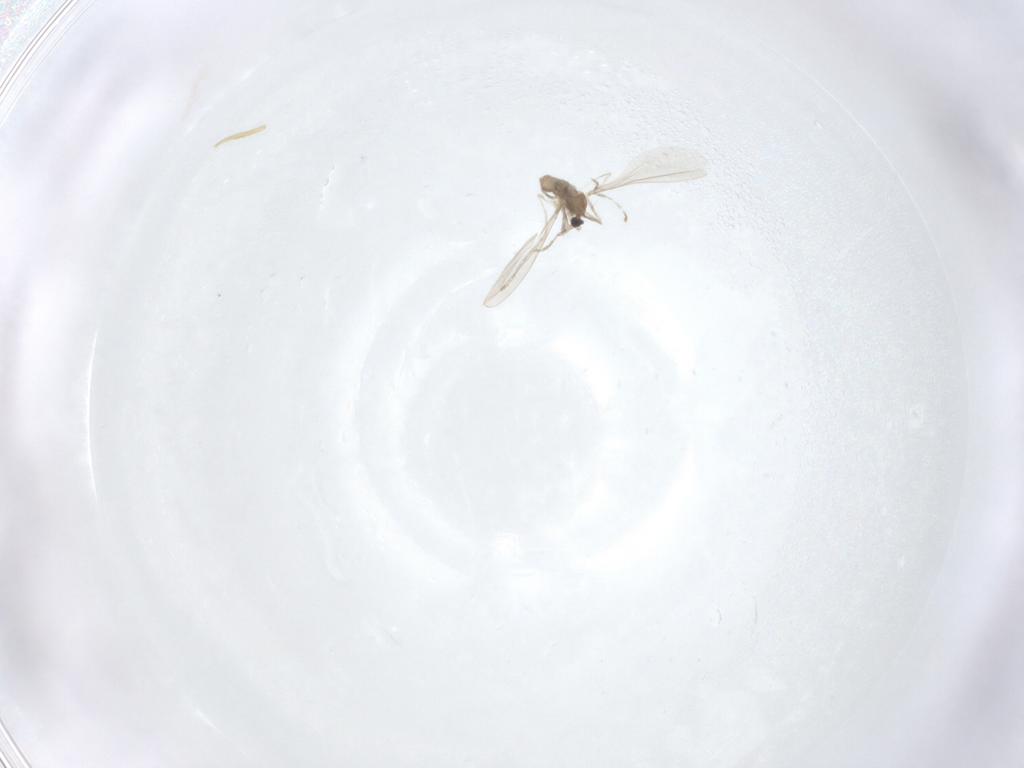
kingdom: Animalia
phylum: Arthropoda
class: Insecta
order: Diptera
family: Cecidomyiidae
